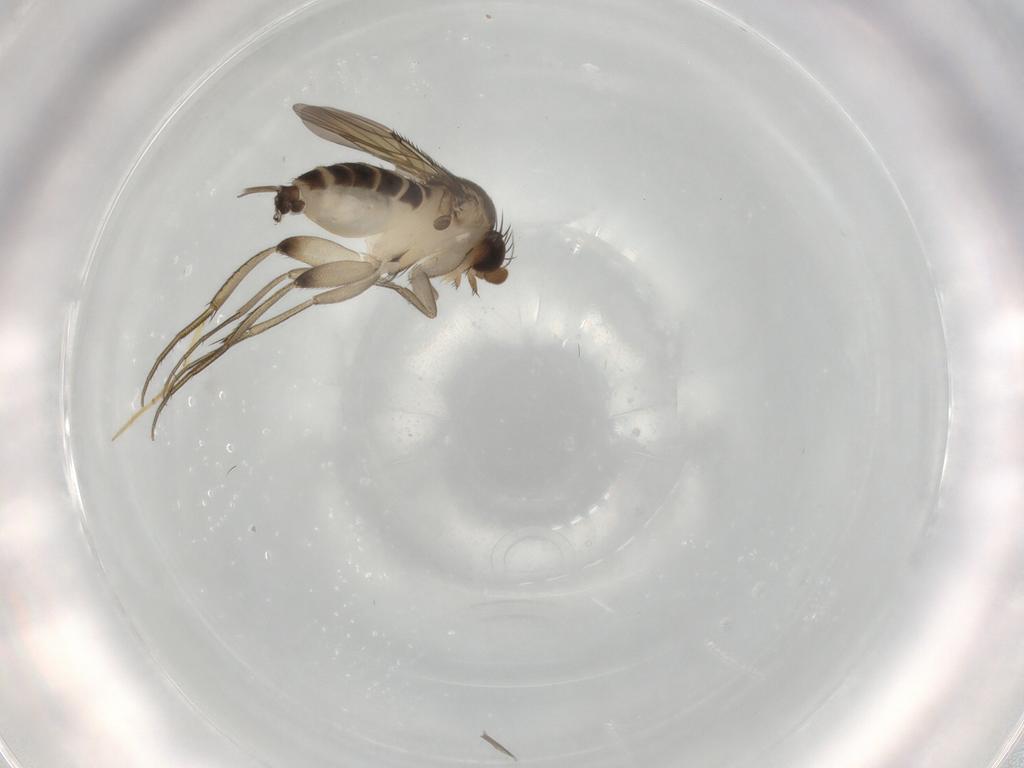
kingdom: Animalia
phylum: Arthropoda
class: Insecta
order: Diptera
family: Phoridae
